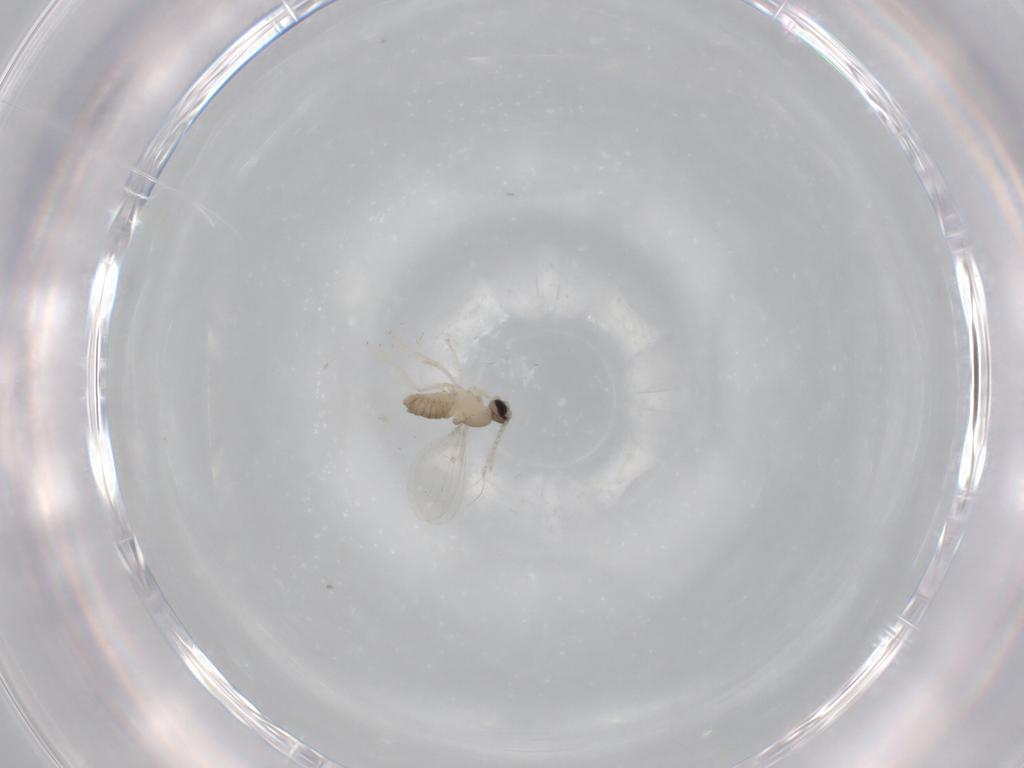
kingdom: Animalia
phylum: Arthropoda
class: Insecta
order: Diptera
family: Cecidomyiidae
